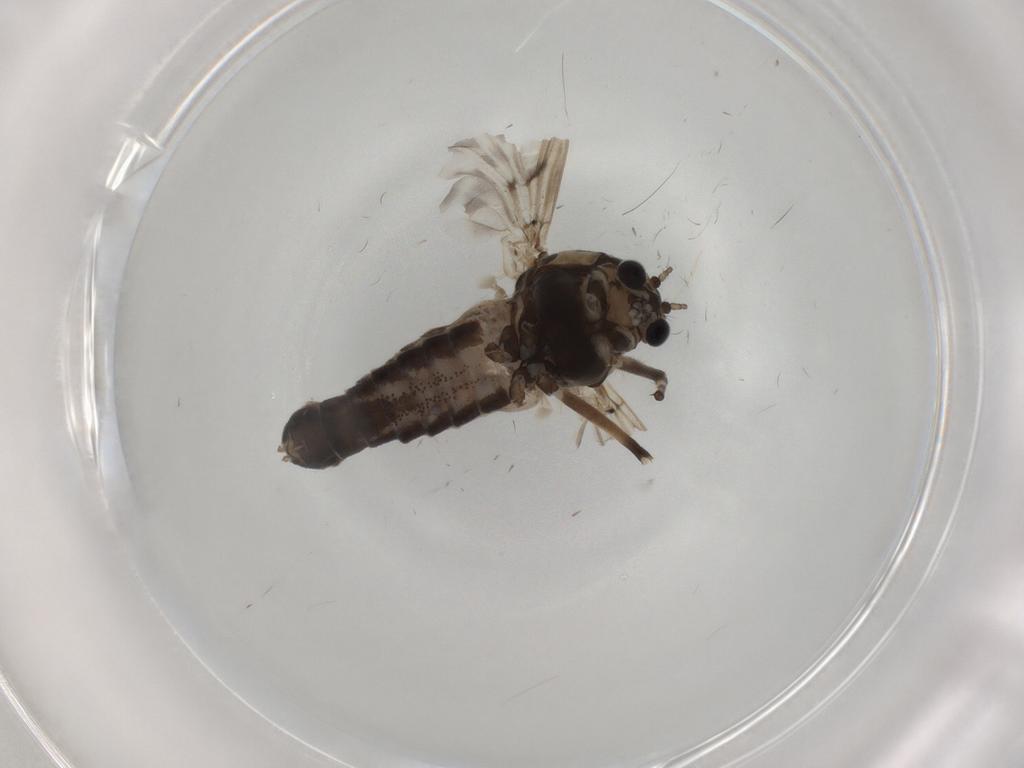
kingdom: Animalia
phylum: Arthropoda
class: Insecta
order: Diptera
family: Chironomidae
